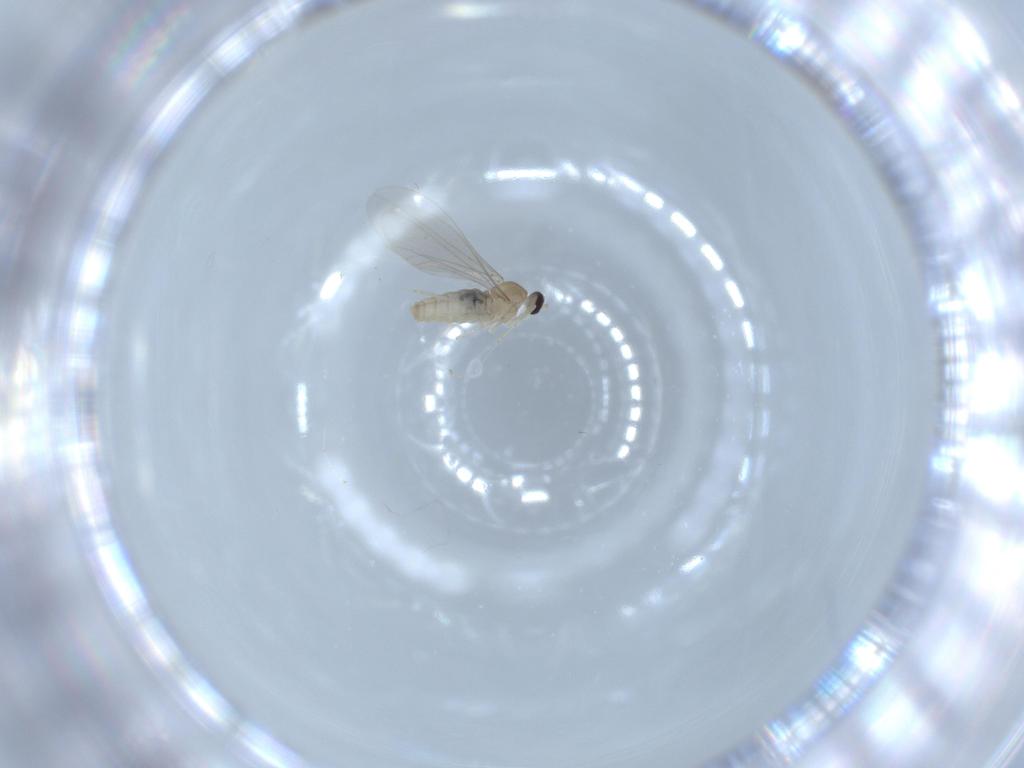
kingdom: Animalia
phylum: Arthropoda
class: Insecta
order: Diptera
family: Cecidomyiidae
